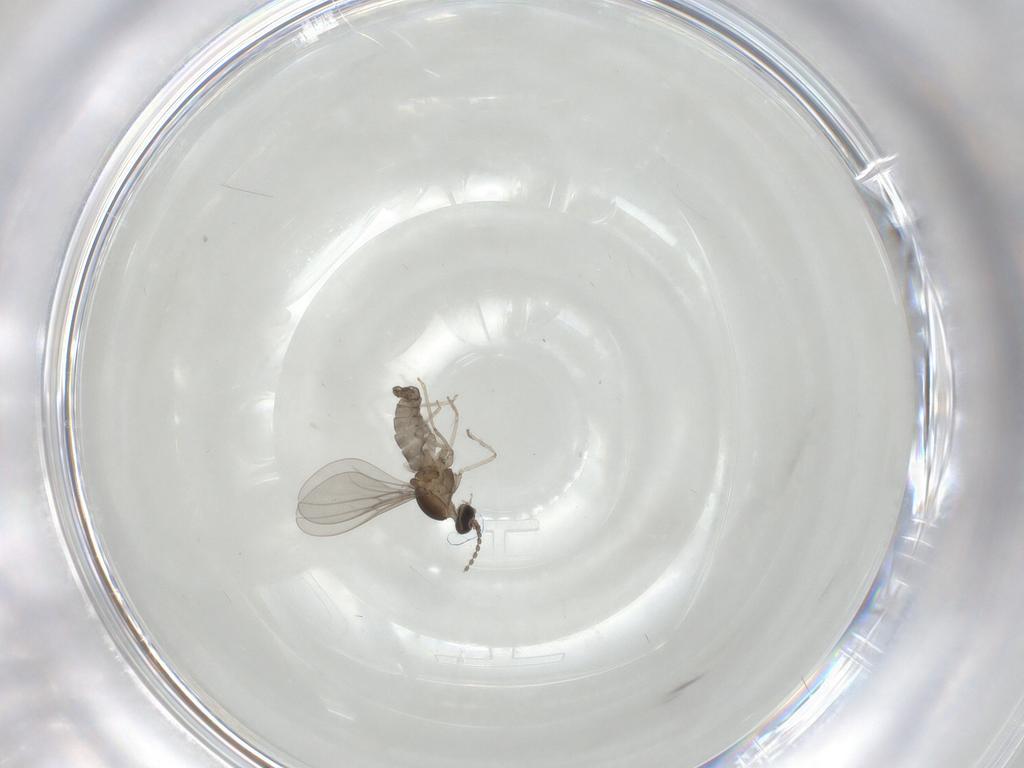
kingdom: Animalia
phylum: Arthropoda
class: Insecta
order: Diptera
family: Cecidomyiidae
